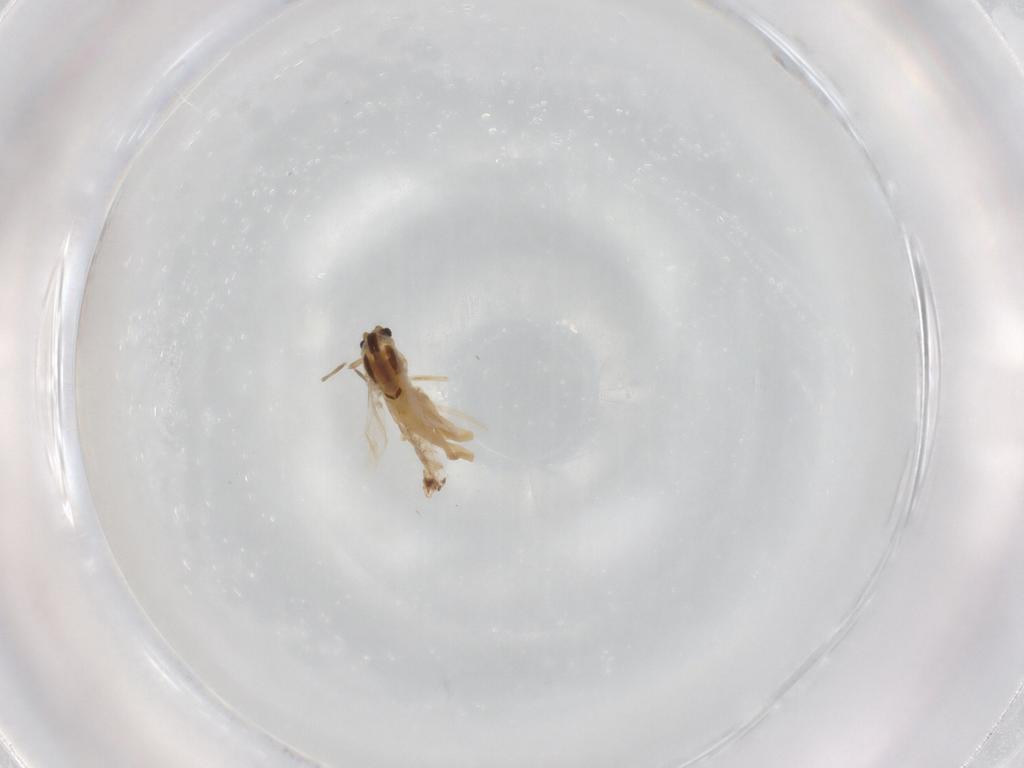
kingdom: Animalia
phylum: Arthropoda
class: Insecta
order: Diptera
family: Chironomidae
